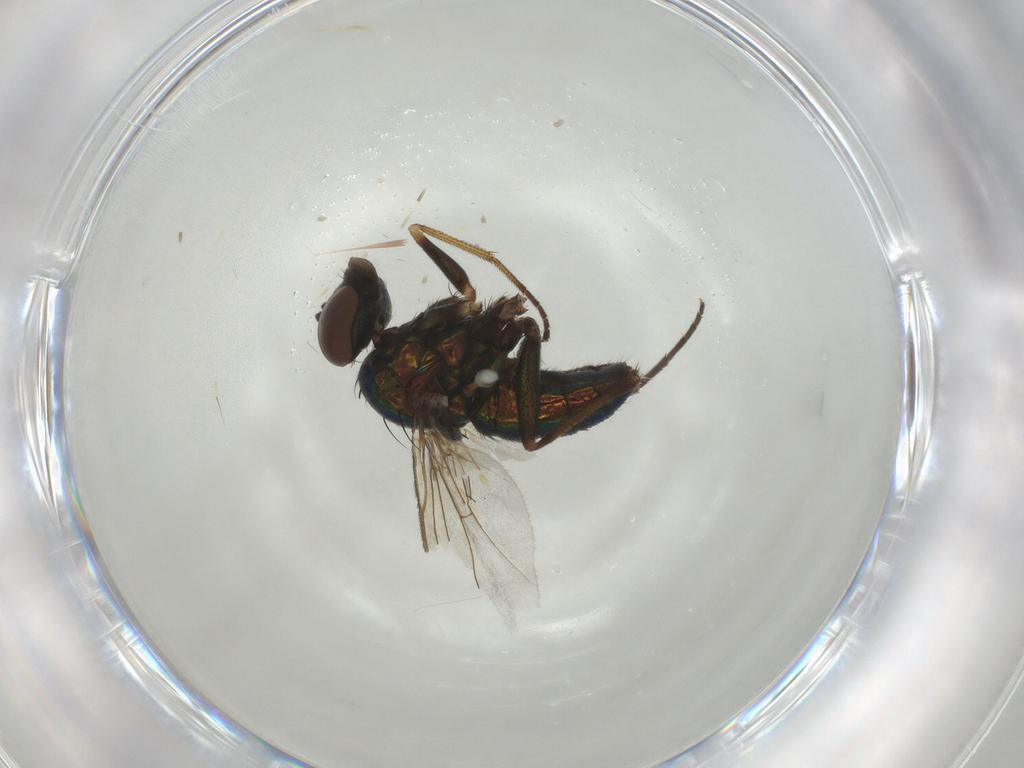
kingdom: Animalia
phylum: Arthropoda
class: Insecta
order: Diptera
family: Dolichopodidae
